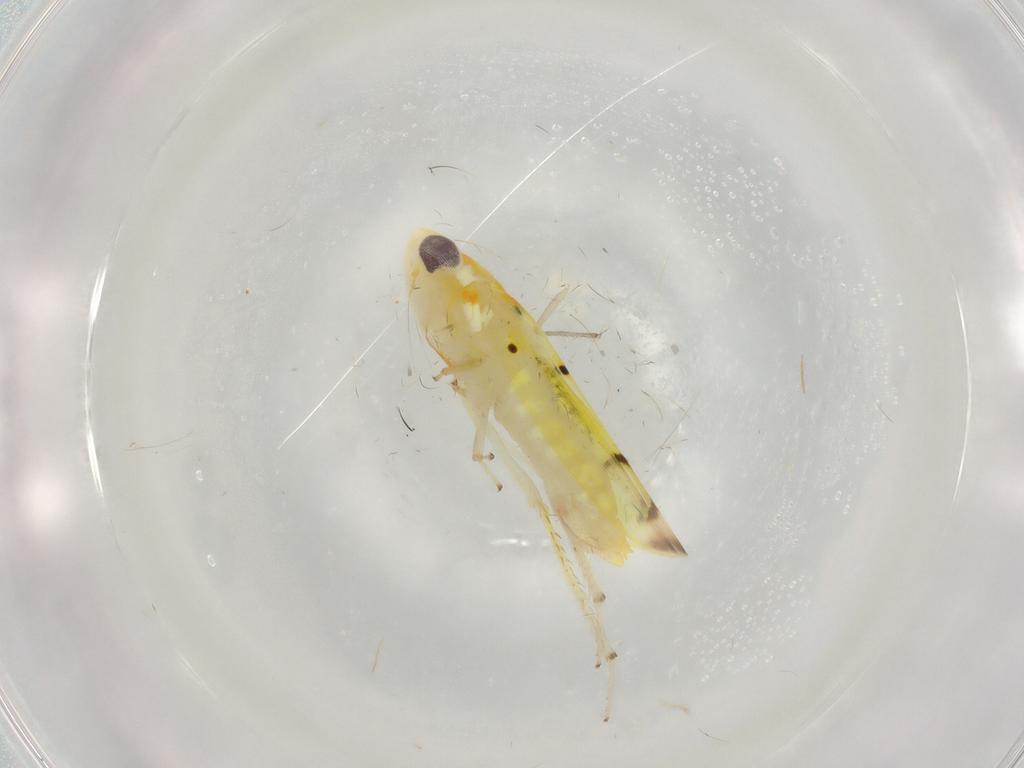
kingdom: Animalia
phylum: Arthropoda
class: Insecta
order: Hemiptera
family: Cicadellidae
